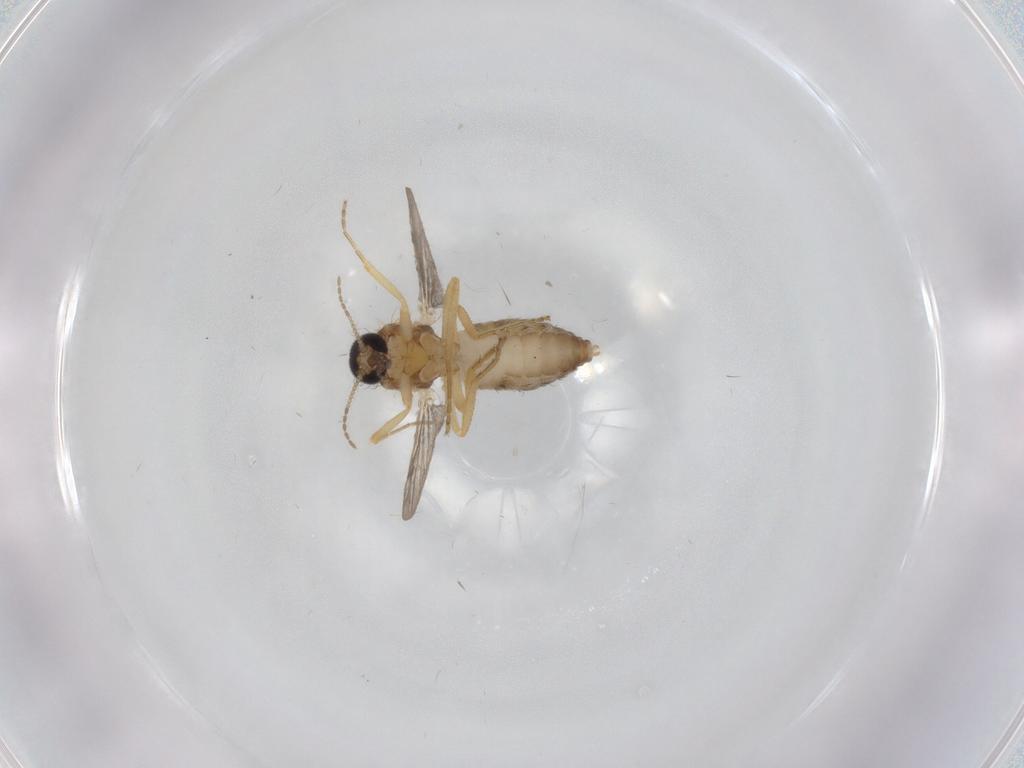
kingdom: Animalia
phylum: Arthropoda
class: Insecta
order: Diptera
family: Ceratopogonidae
